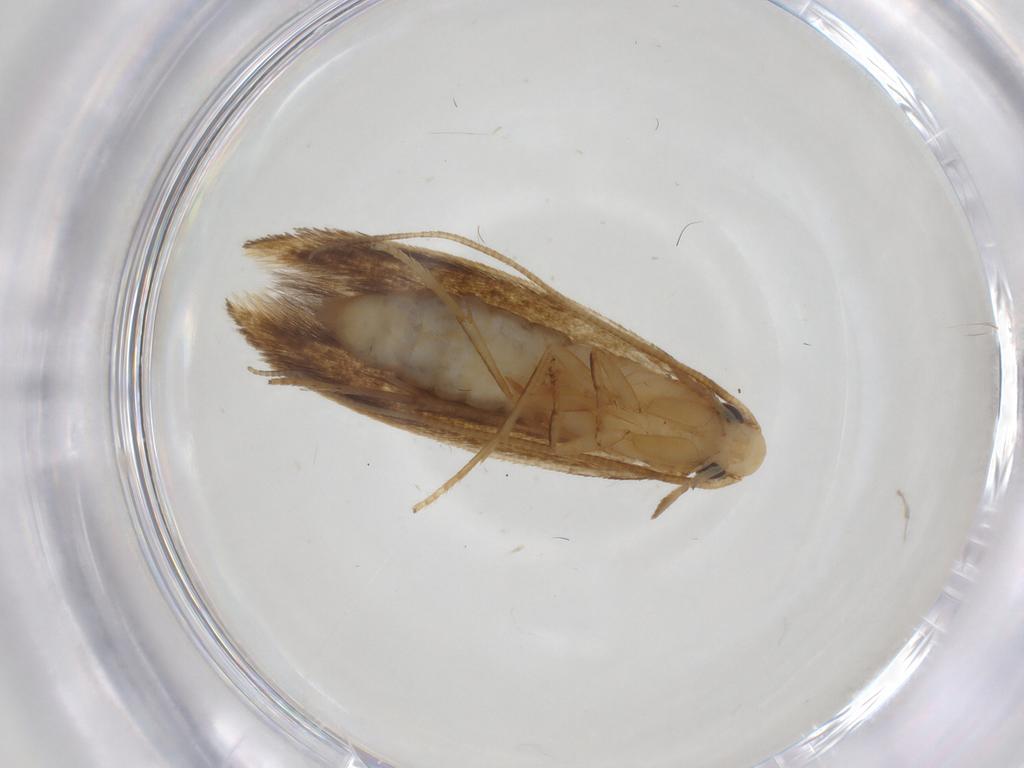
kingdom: Animalia
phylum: Arthropoda
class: Insecta
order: Lepidoptera
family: Tineidae
